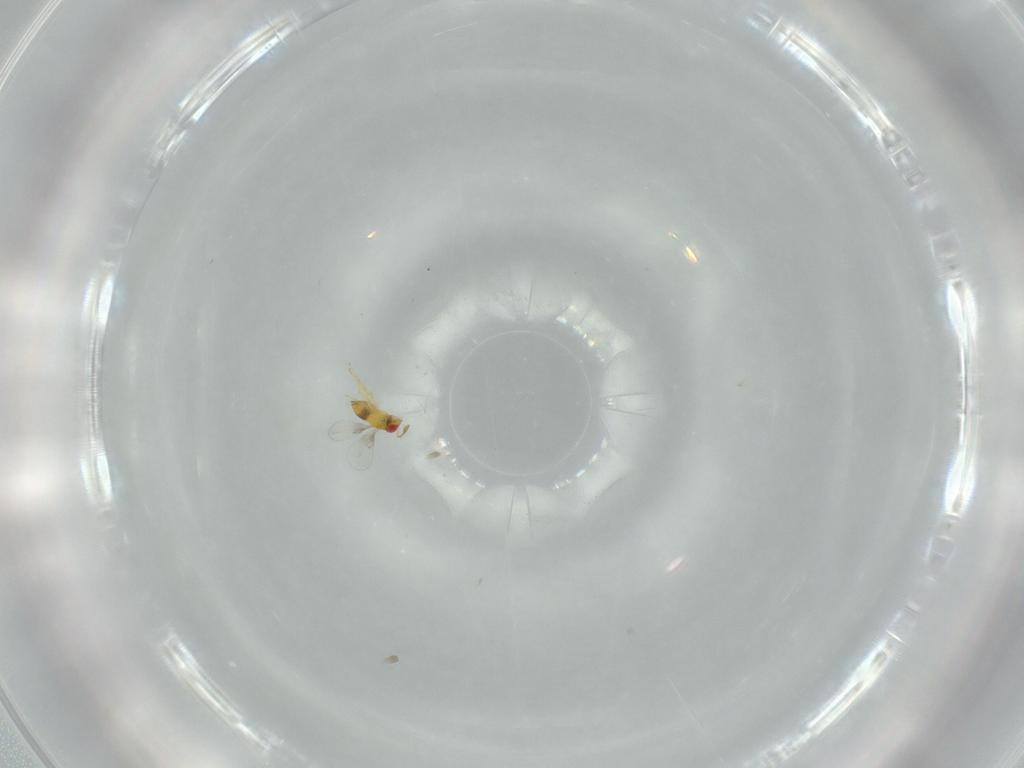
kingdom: Animalia
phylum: Arthropoda
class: Insecta
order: Hymenoptera
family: Trichogrammatidae
